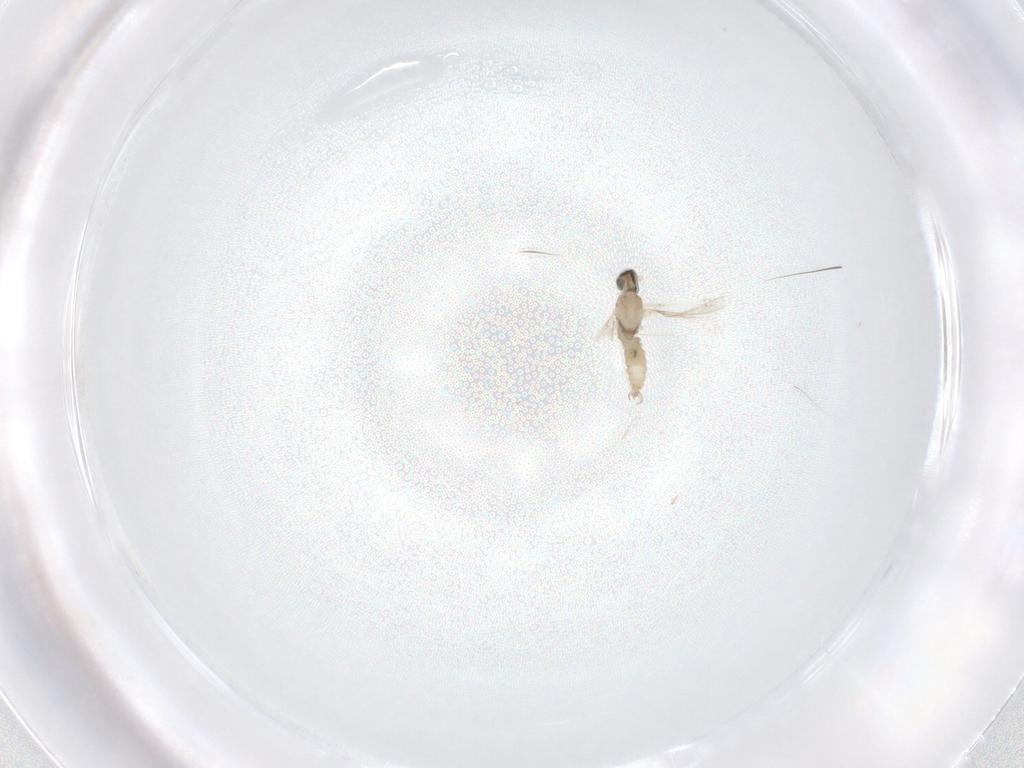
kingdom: Animalia
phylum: Arthropoda
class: Insecta
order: Diptera
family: Cecidomyiidae
